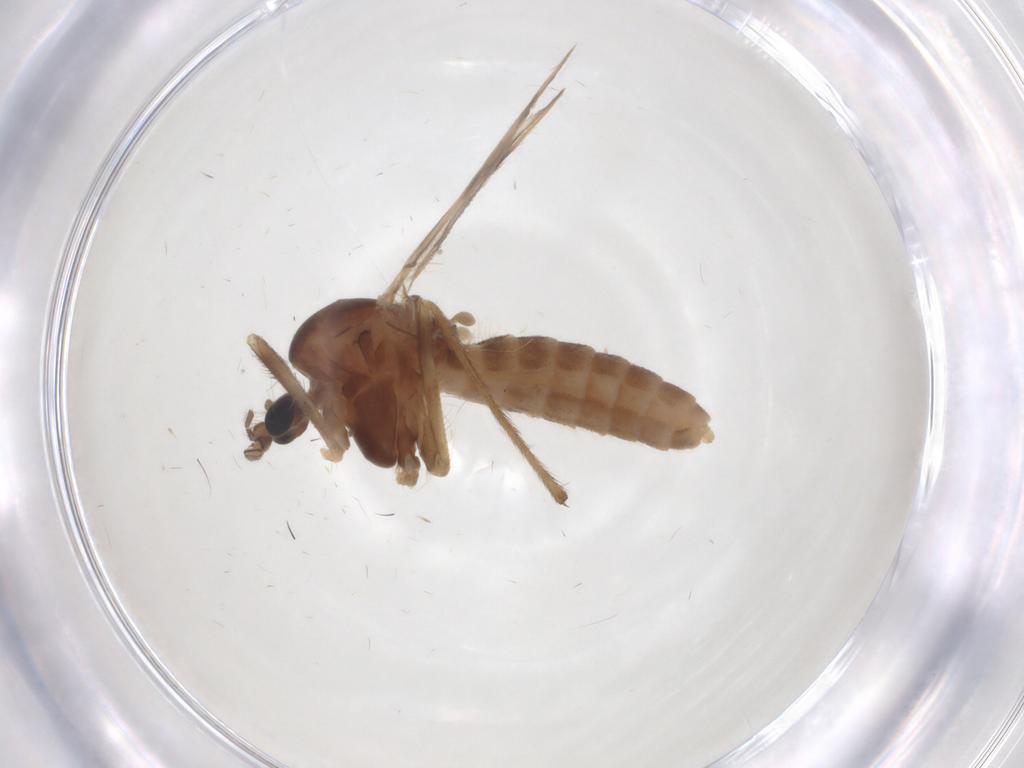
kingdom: Animalia
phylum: Arthropoda
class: Insecta
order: Diptera
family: Chironomidae
